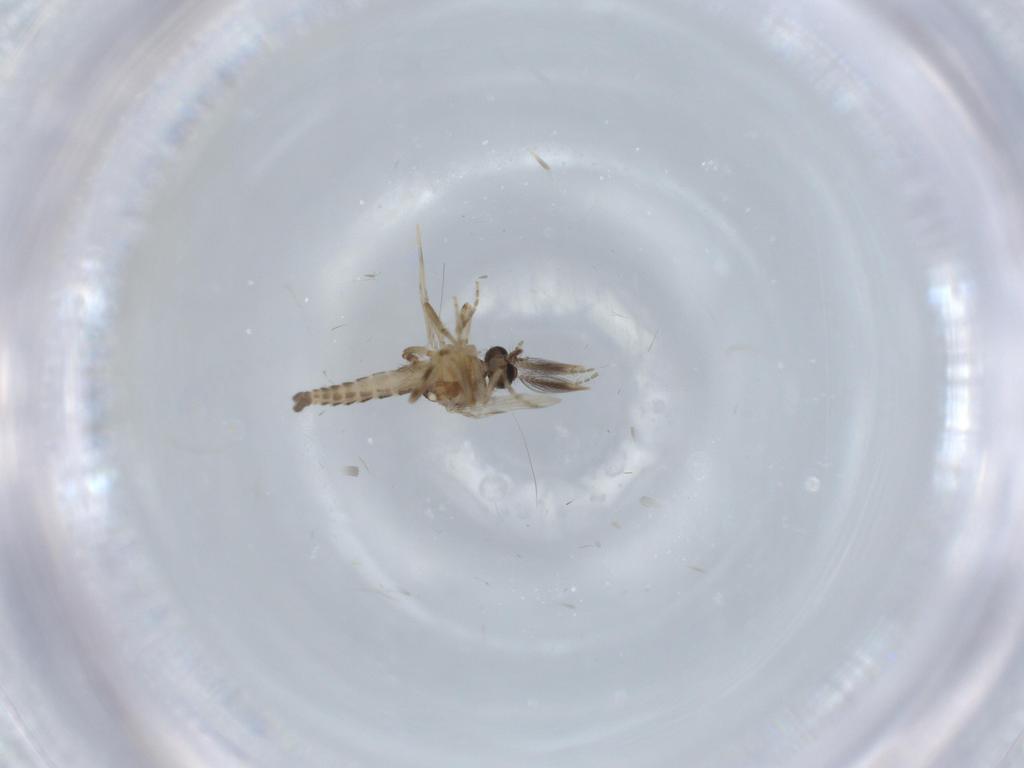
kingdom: Animalia
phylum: Arthropoda
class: Insecta
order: Diptera
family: Ceratopogonidae
